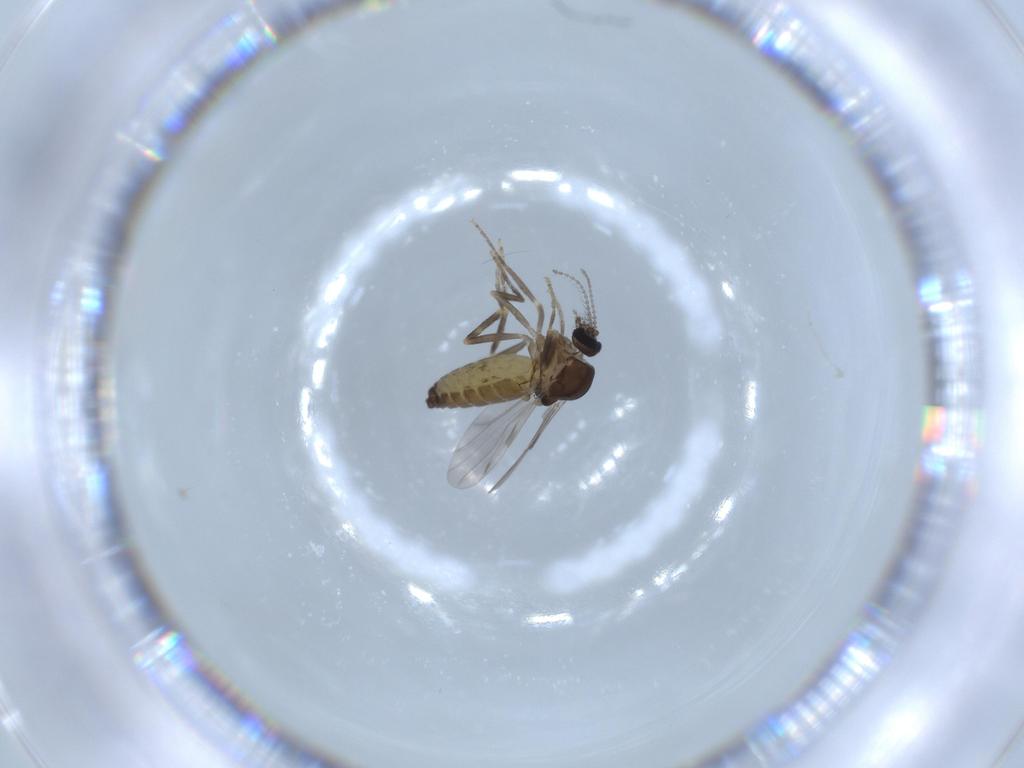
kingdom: Animalia
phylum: Arthropoda
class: Insecta
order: Diptera
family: Ceratopogonidae
